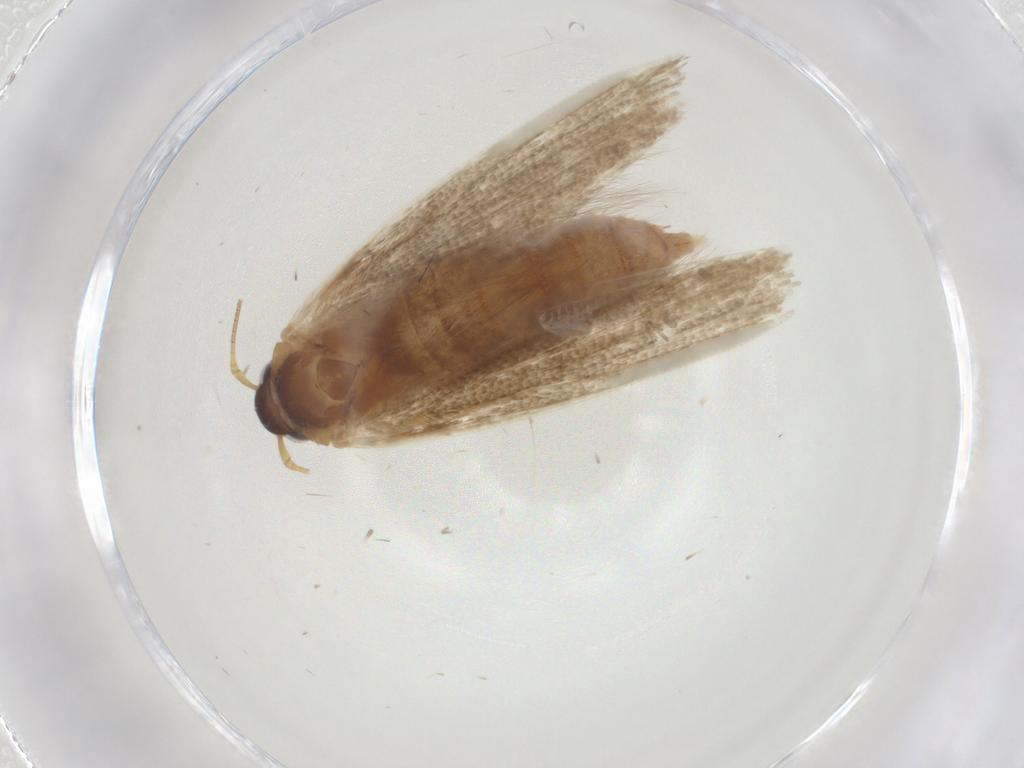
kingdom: Animalia
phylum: Arthropoda
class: Insecta
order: Lepidoptera
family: Blastobasidae
